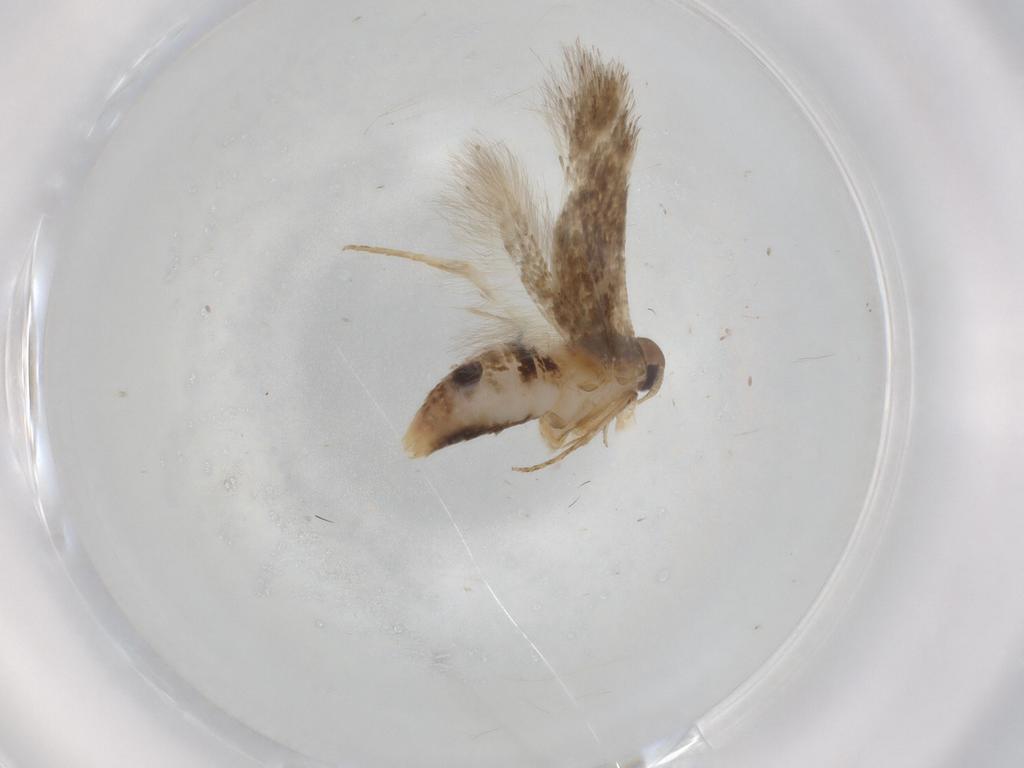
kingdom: Animalia
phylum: Arthropoda
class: Insecta
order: Lepidoptera
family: Cosmopterigidae
